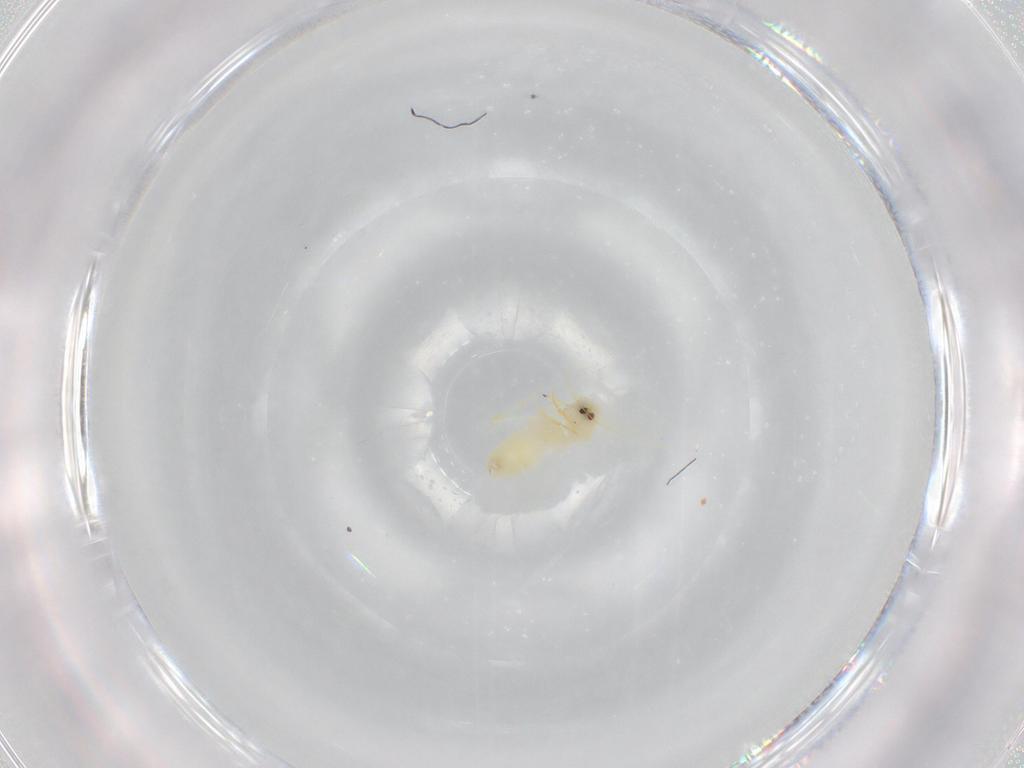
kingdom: Animalia
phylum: Arthropoda
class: Insecta
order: Hemiptera
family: Aleyrodidae
